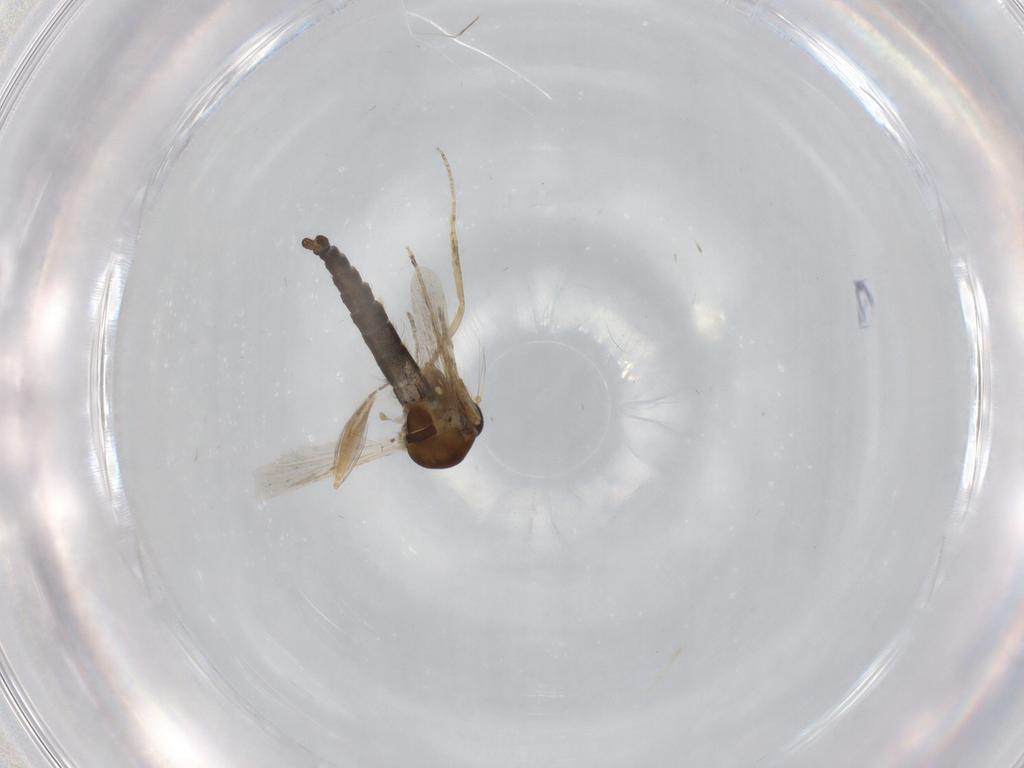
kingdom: Animalia
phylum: Arthropoda
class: Insecta
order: Diptera
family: Ceratopogonidae
